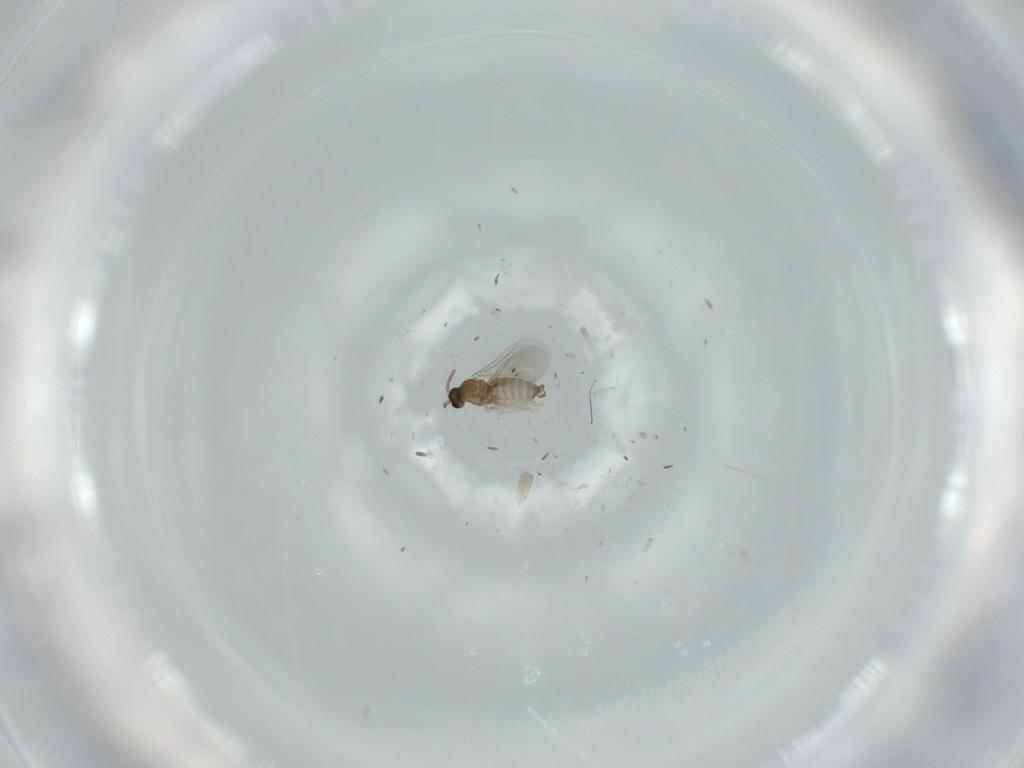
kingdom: Animalia
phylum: Arthropoda
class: Insecta
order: Diptera
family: Cecidomyiidae
